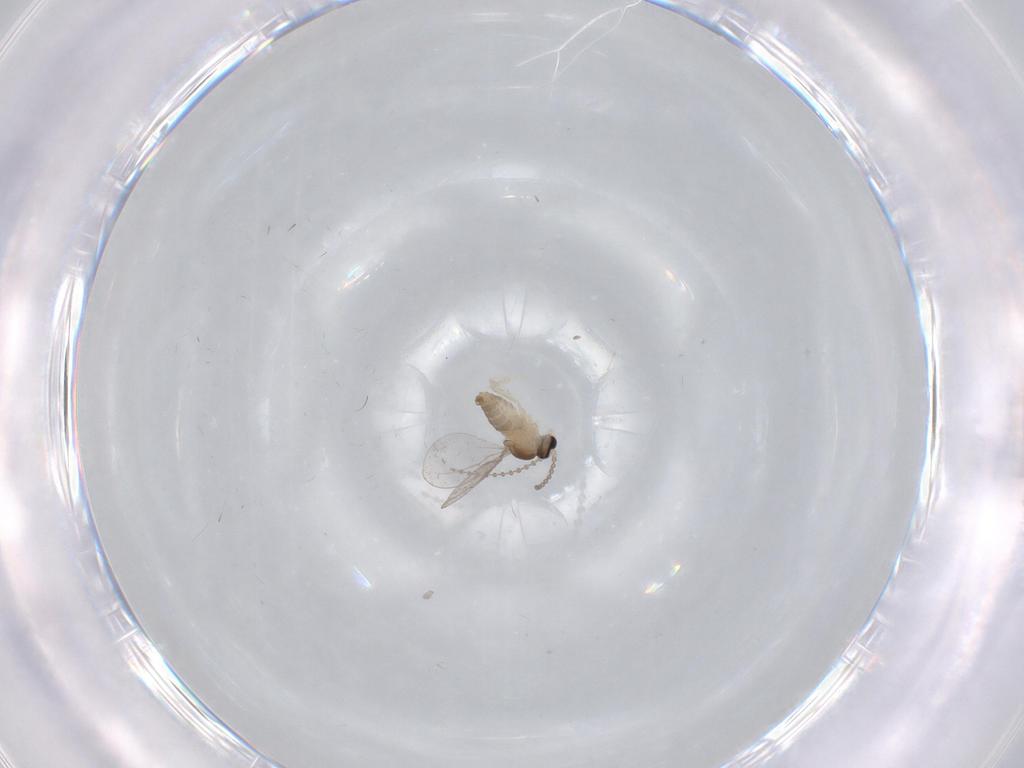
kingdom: Animalia
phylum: Arthropoda
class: Insecta
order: Diptera
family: Cecidomyiidae
